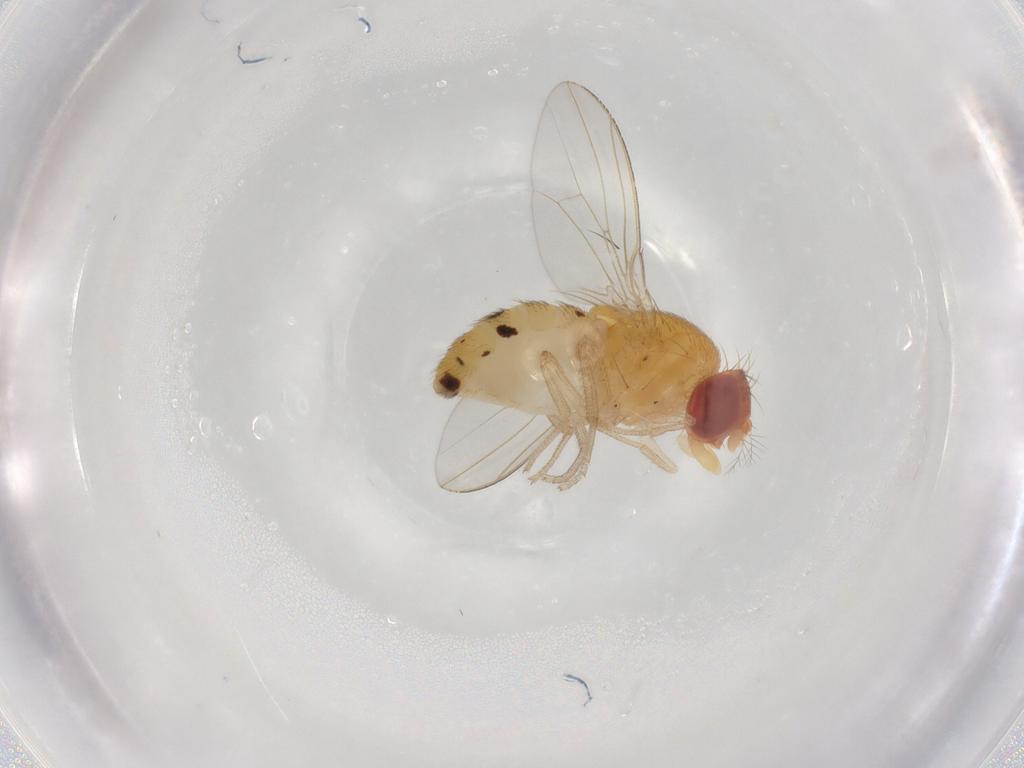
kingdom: Animalia
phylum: Arthropoda
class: Insecta
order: Diptera
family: Drosophilidae
